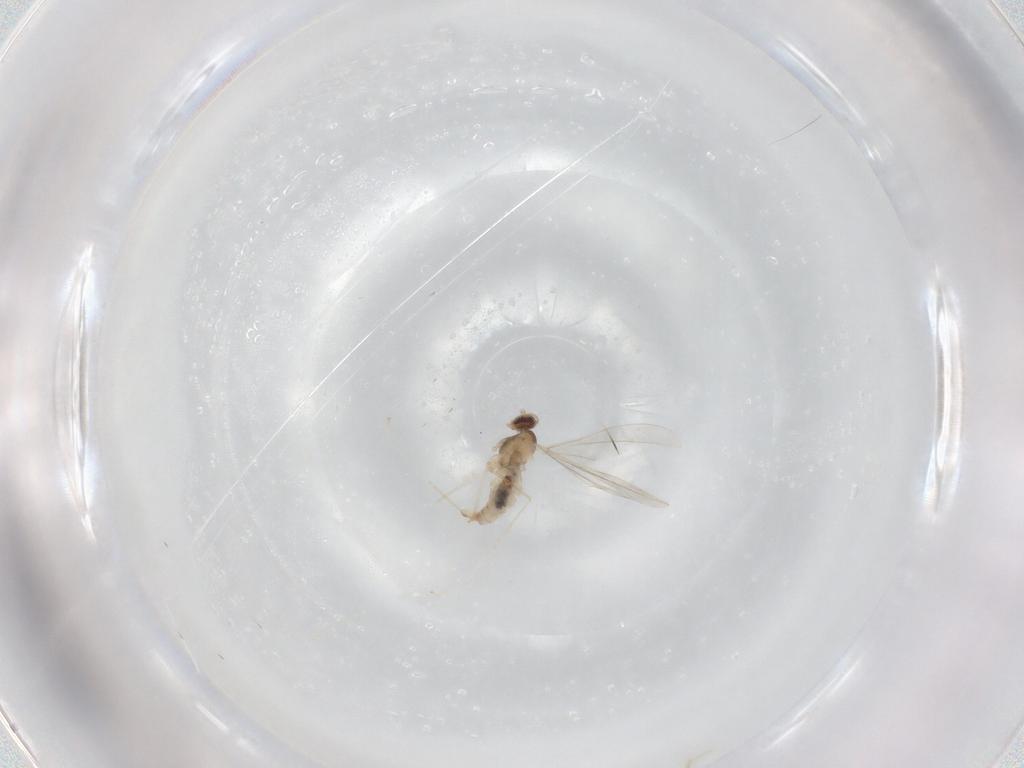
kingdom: Animalia
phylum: Arthropoda
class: Insecta
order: Diptera
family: Cecidomyiidae
